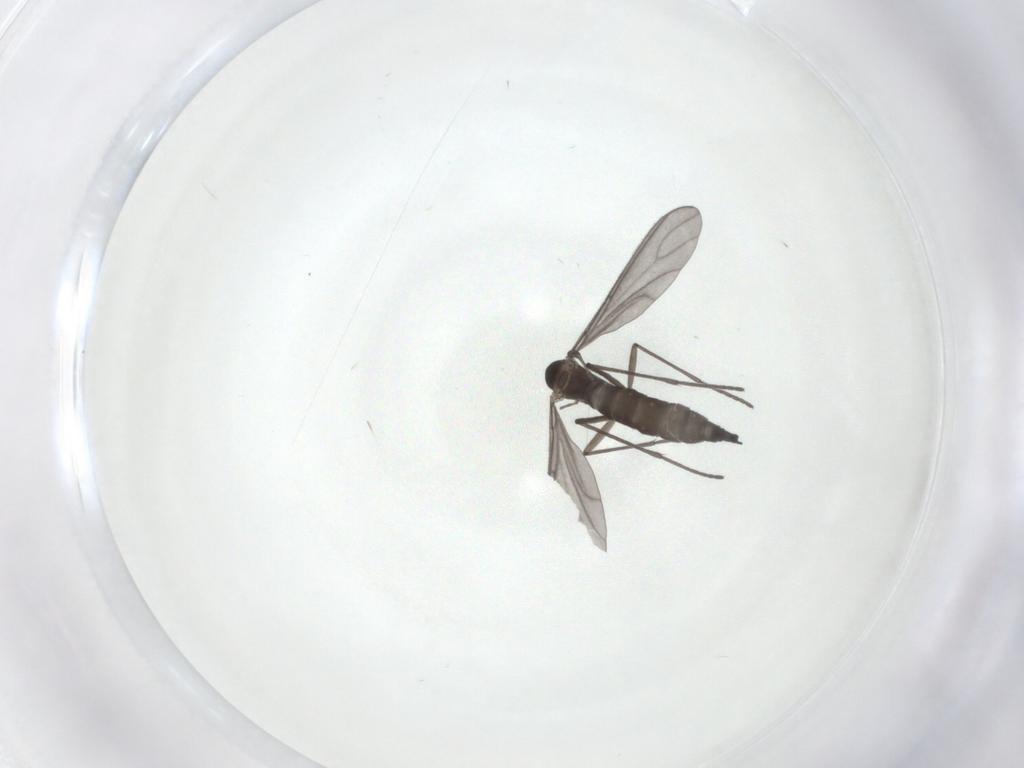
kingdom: Animalia
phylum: Arthropoda
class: Insecta
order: Diptera
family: Sciaridae
